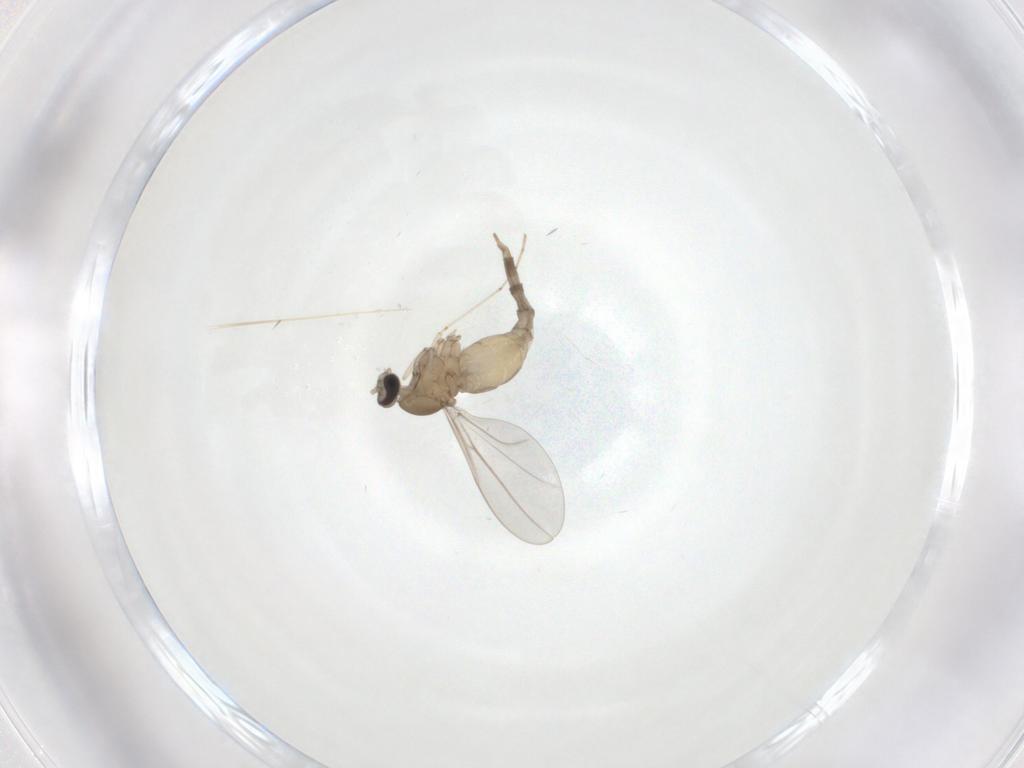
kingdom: Animalia
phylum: Arthropoda
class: Insecta
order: Diptera
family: Cecidomyiidae
